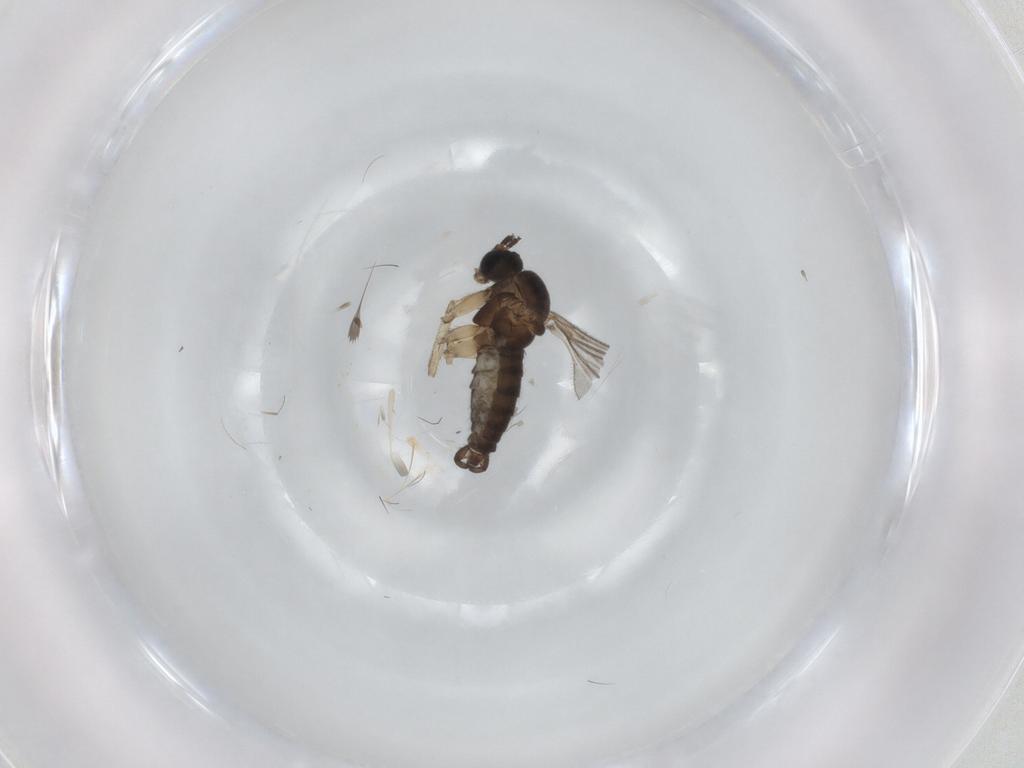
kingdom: Animalia
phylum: Arthropoda
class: Insecta
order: Diptera
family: Sciaridae
